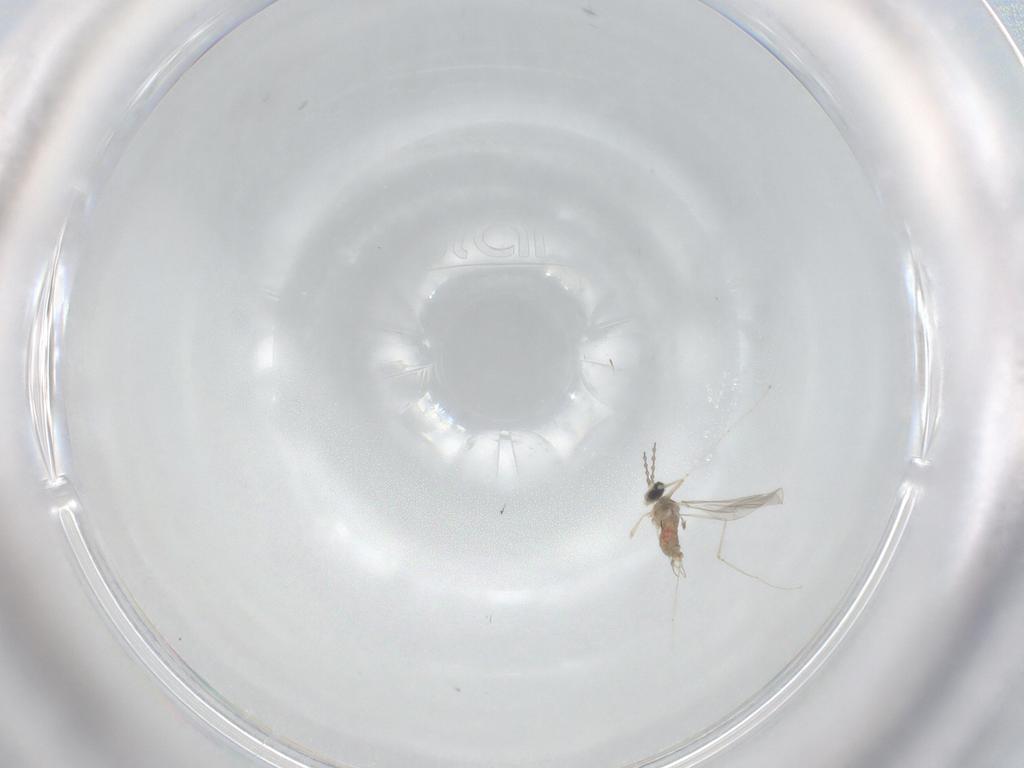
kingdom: Animalia
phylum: Arthropoda
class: Insecta
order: Diptera
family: Cecidomyiidae
